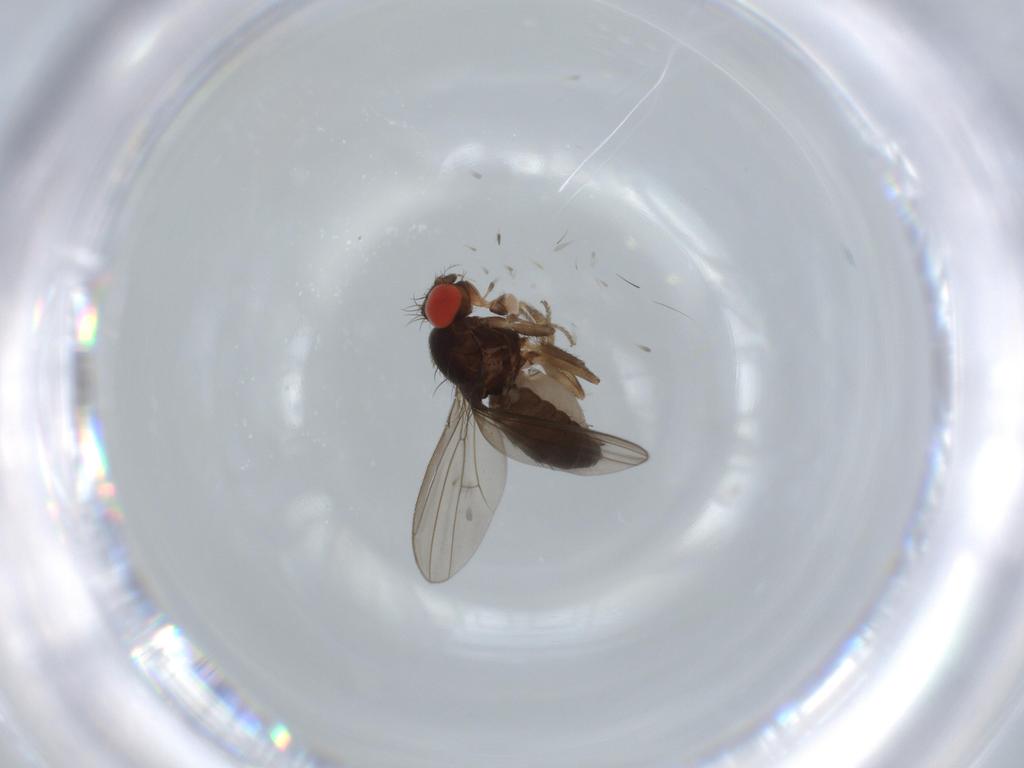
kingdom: Animalia
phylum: Arthropoda
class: Insecta
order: Diptera
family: Drosophilidae
